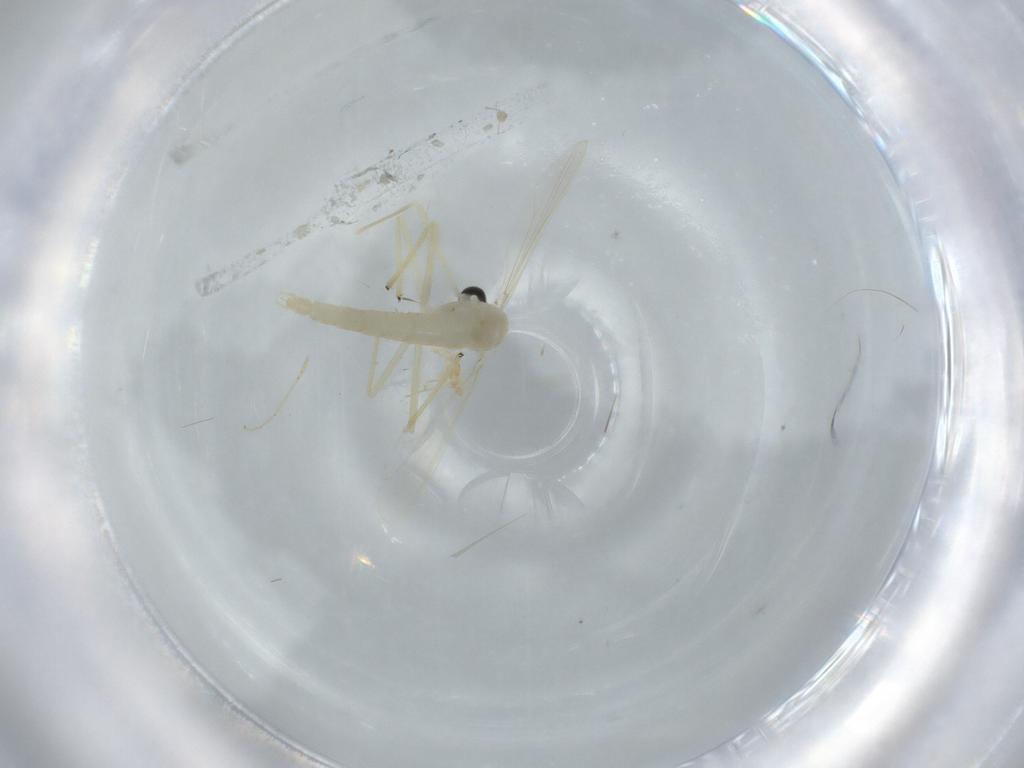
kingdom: Animalia
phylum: Arthropoda
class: Insecta
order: Diptera
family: Chironomidae
